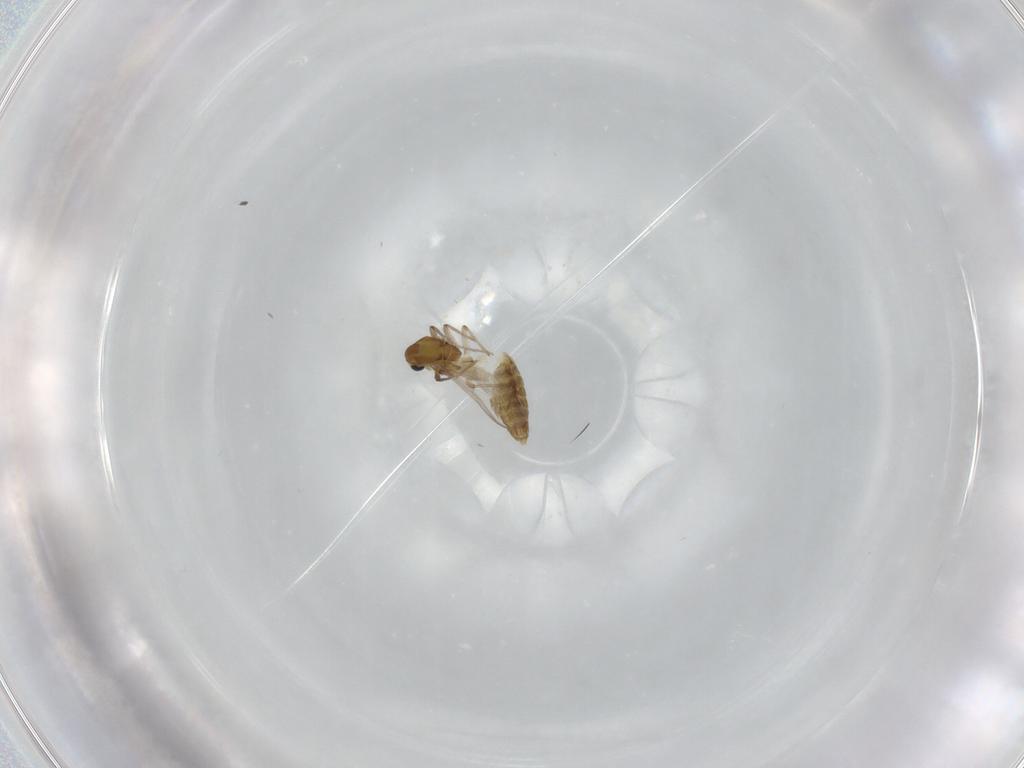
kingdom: Animalia
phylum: Arthropoda
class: Insecta
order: Diptera
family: Chironomidae
